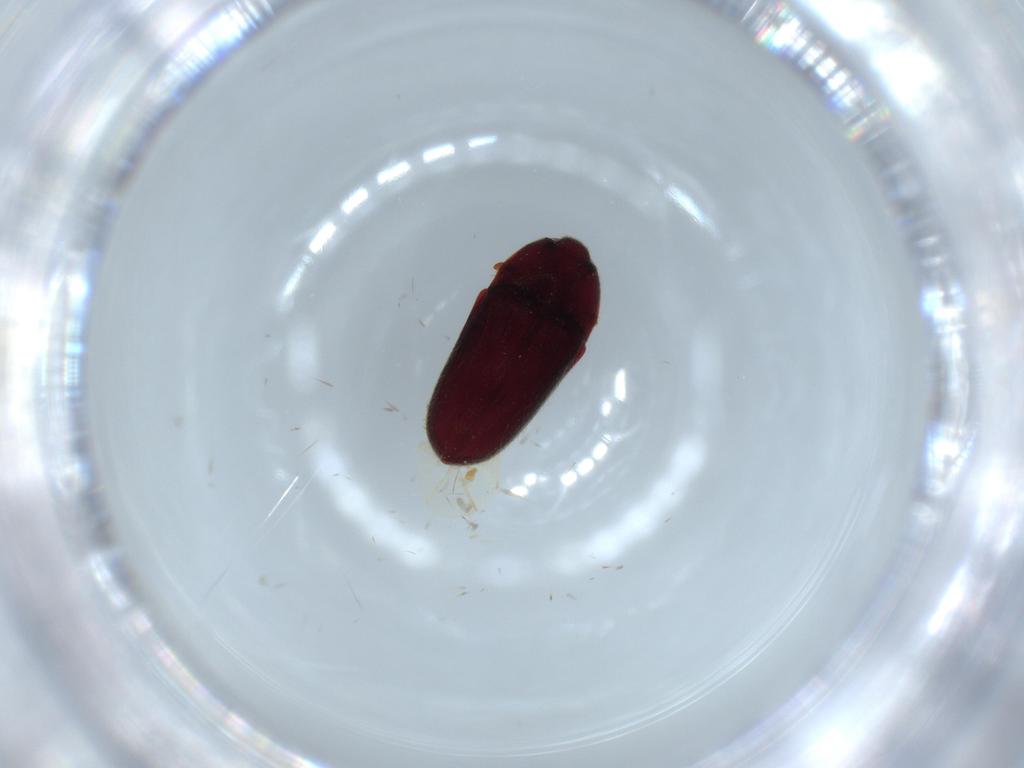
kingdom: Animalia
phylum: Arthropoda
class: Insecta
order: Coleoptera
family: Throscidae
